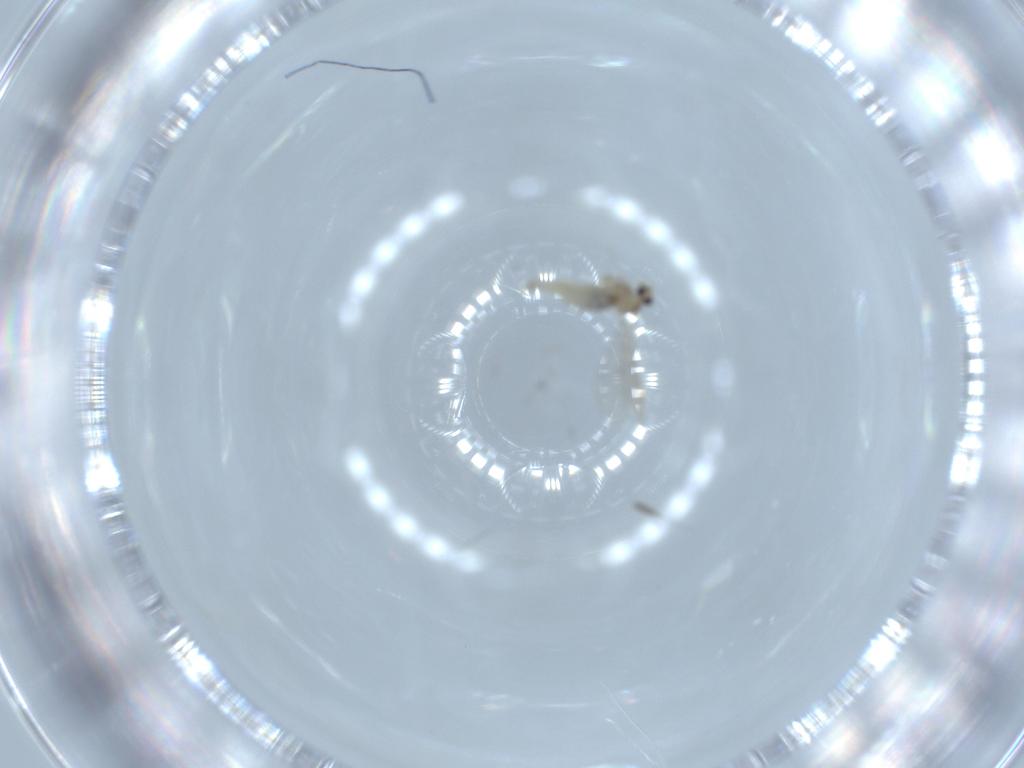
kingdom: Animalia
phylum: Arthropoda
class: Insecta
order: Diptera
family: Cecidomyiidae
